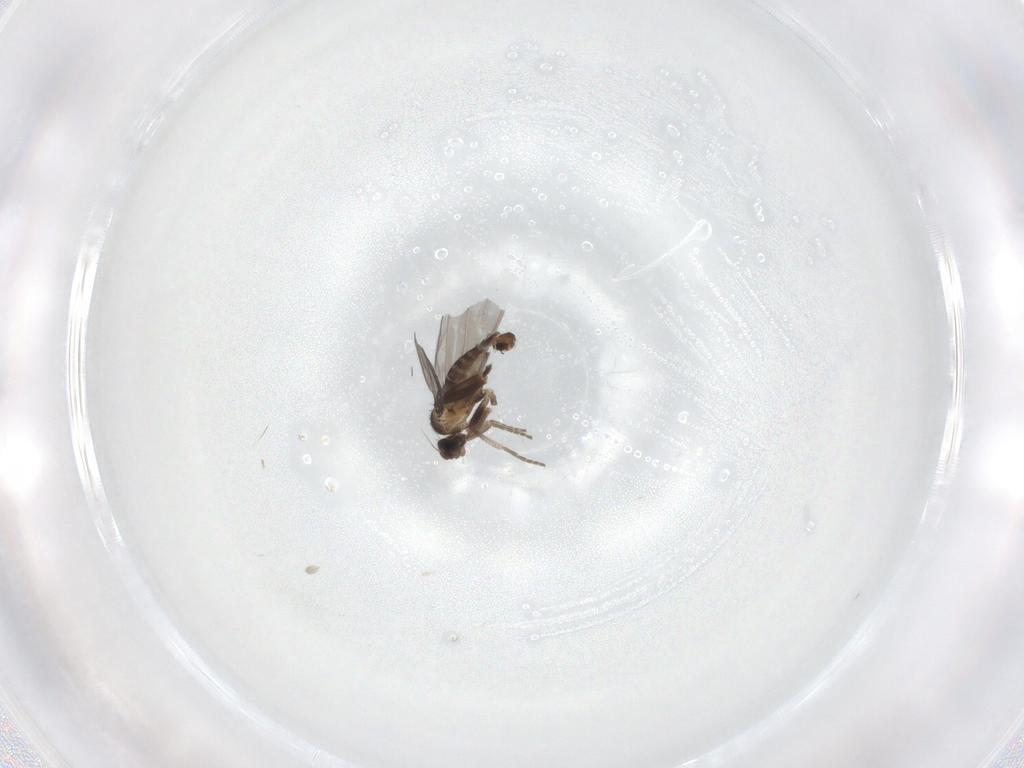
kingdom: Animalia
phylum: Arthropoda
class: Insecta
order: Diptera
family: Phoridae
